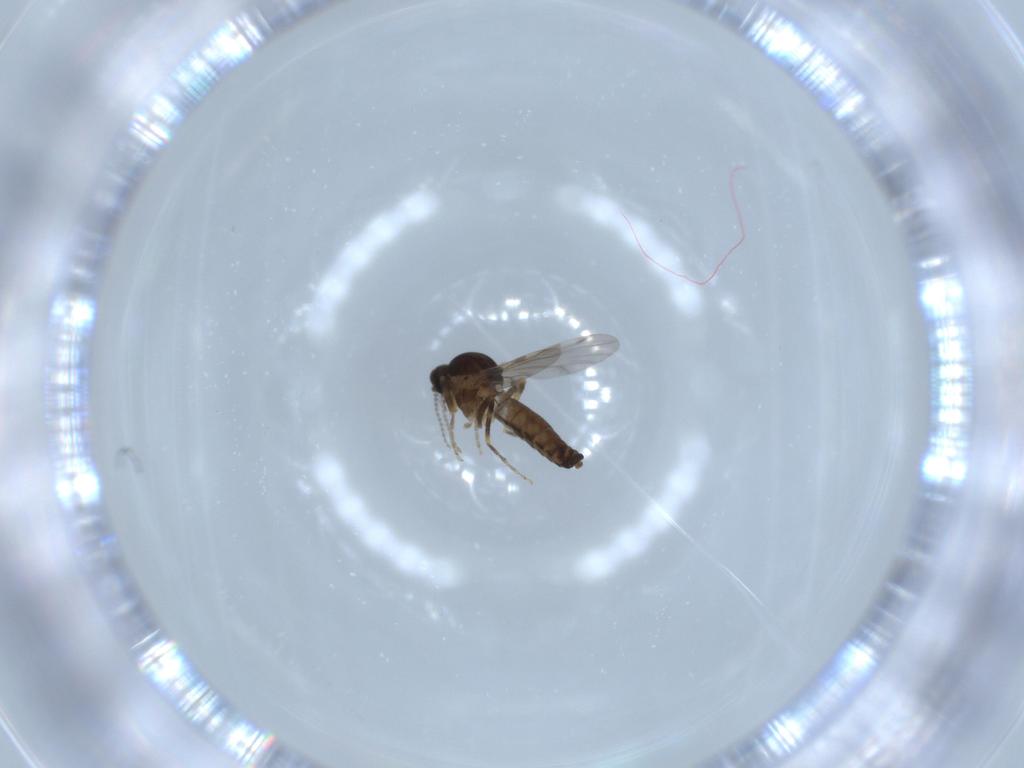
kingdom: Animalia
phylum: Arthropoda
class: Insecta
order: Diptera
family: Ceratopogonidae
